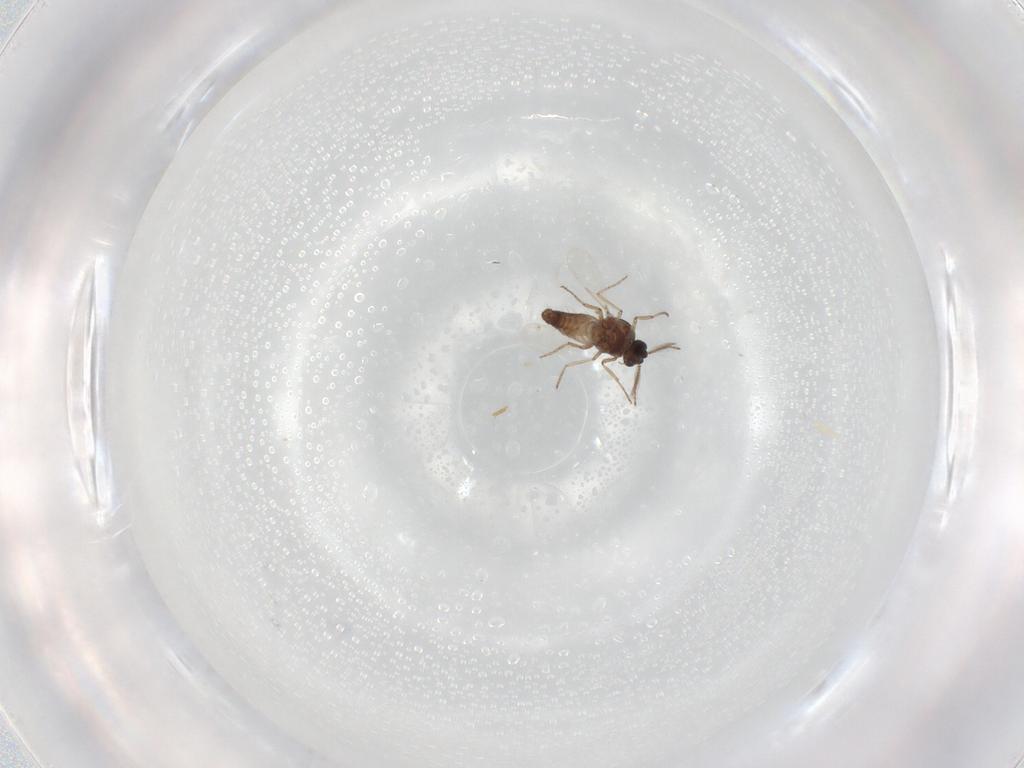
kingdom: Animalia
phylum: Arthropoda
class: Insecta
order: Diptera
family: Ceratopogonidae
